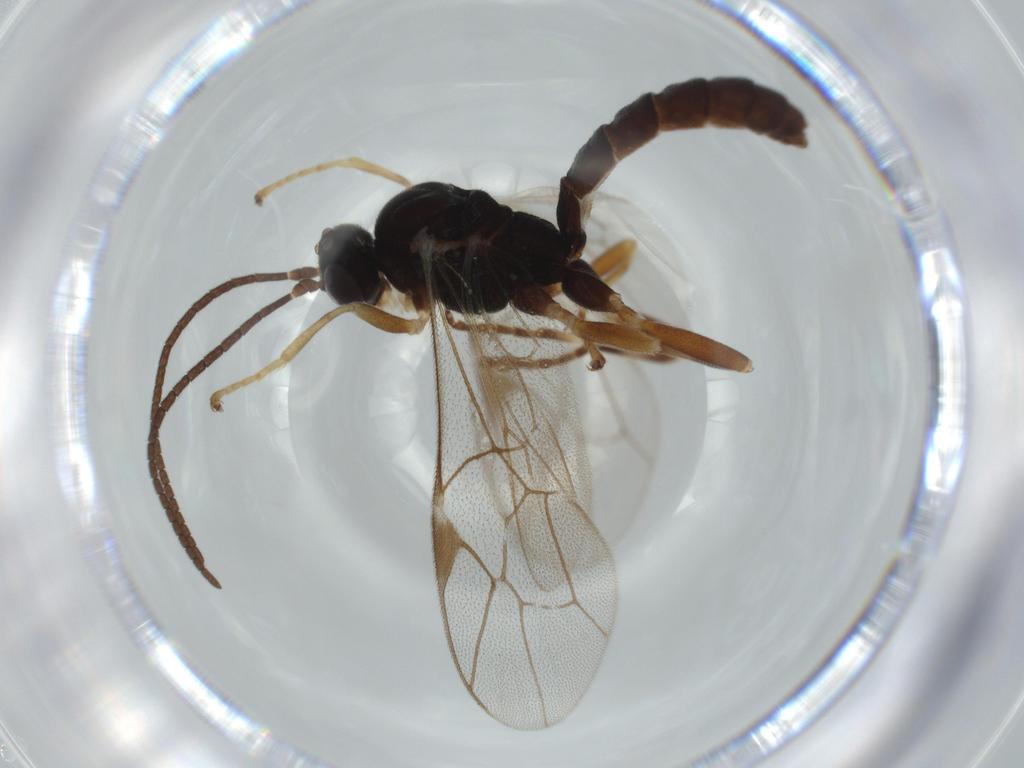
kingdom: Animalia
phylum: Arthropoda
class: Insecta
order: Hymenoptera
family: Ichneumonidae
